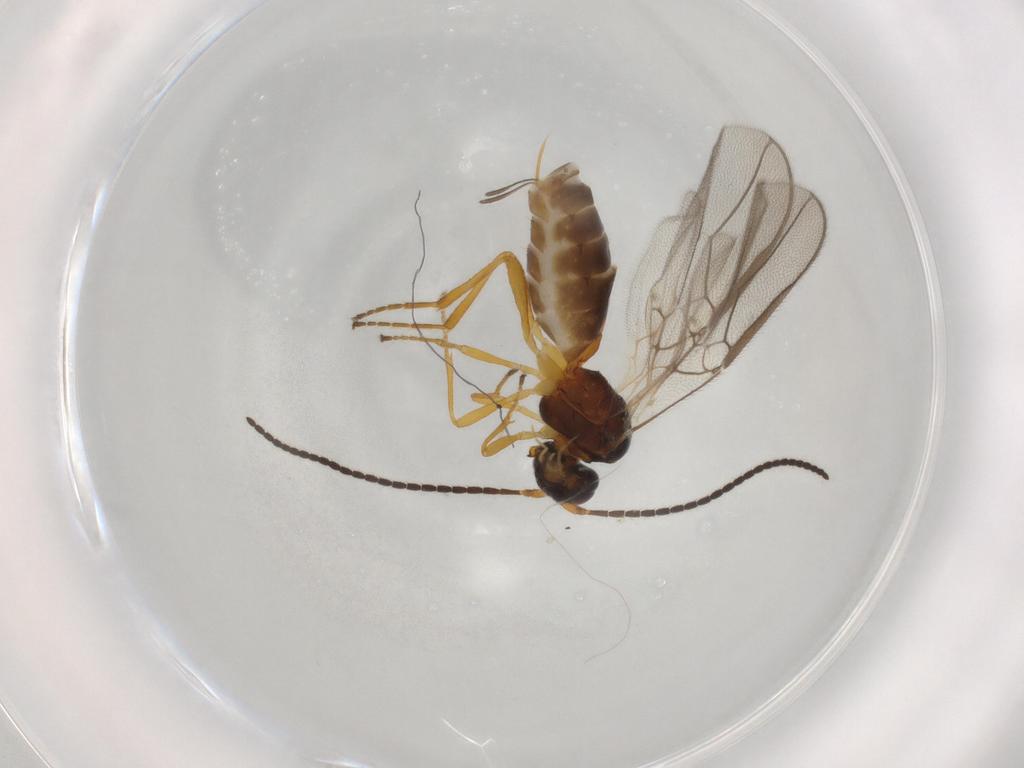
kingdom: Animalia
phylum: Arthropoda
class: Insecta
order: Hymenoptera
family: Braconidae
